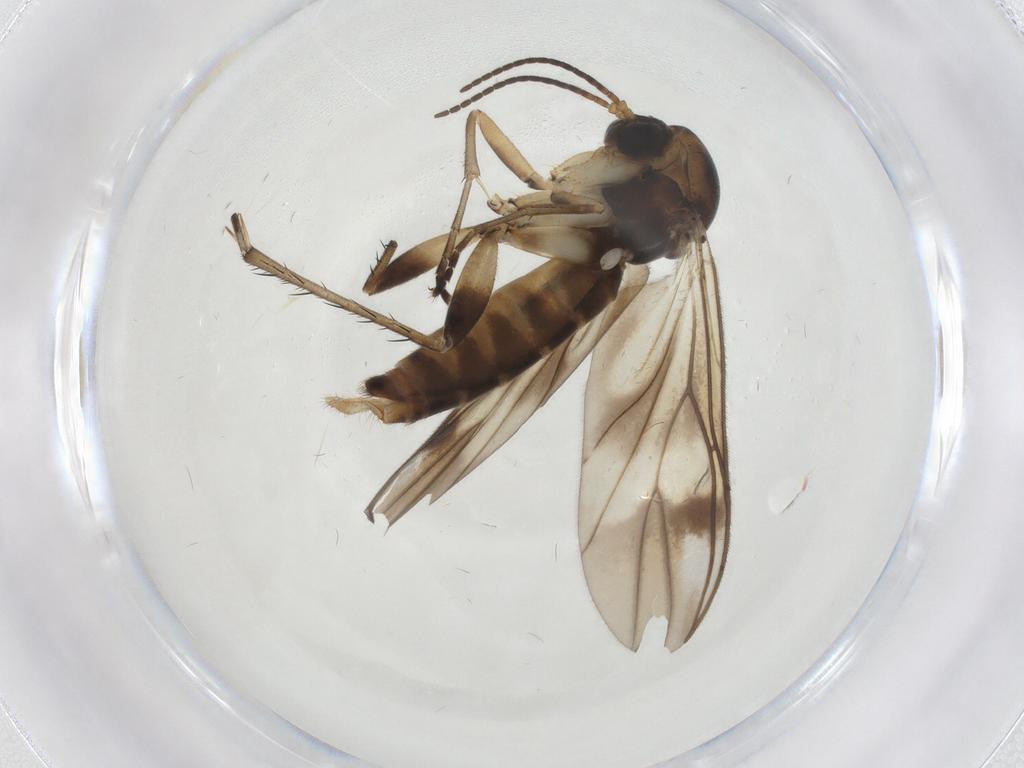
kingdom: Animalia
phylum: Arthropoda
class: Insecta
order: Diptera
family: Mycetophilidae
